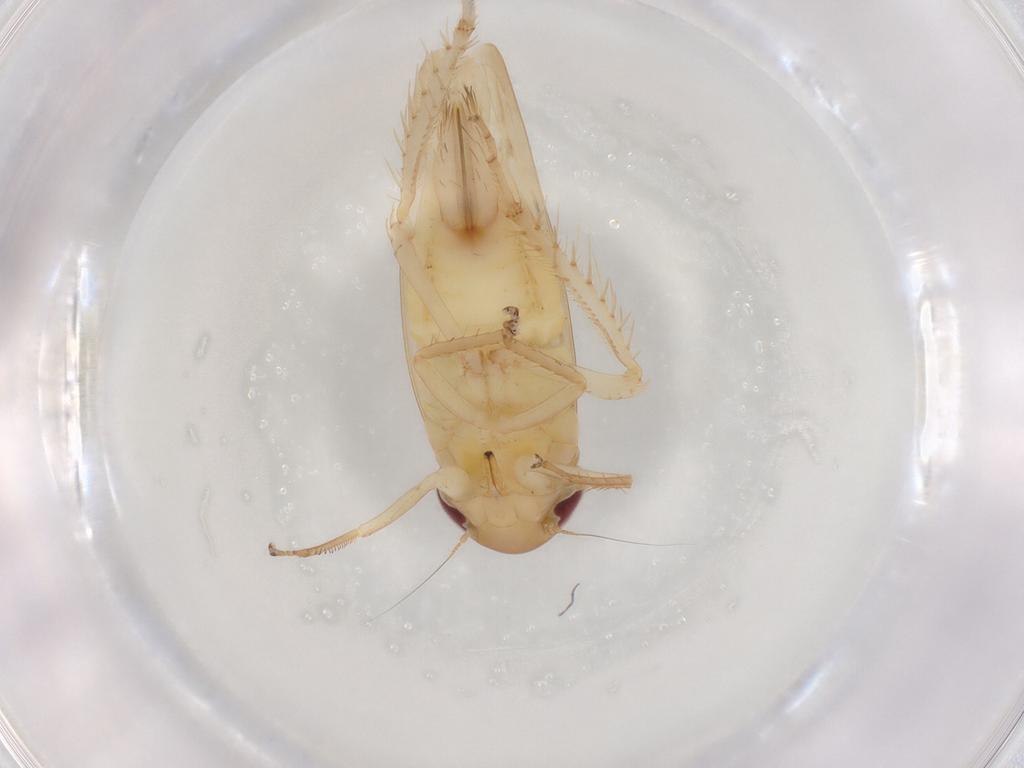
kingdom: Animalia
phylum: Arthropoda
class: Insecta
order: Hemiptera
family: Cicadellidae
